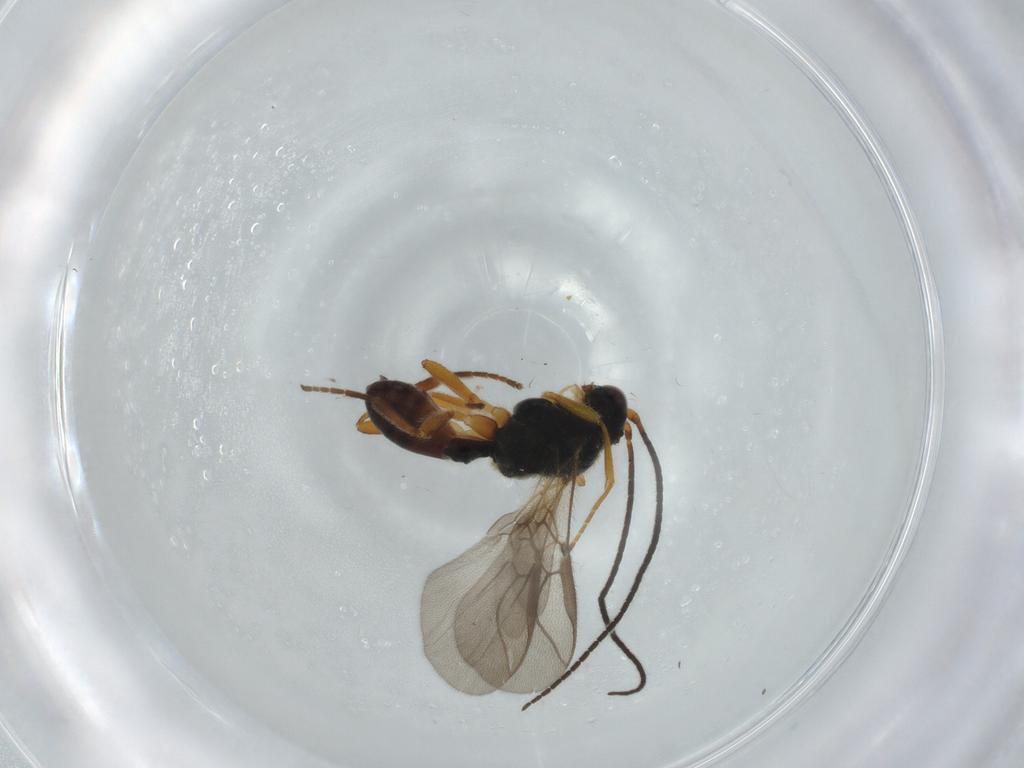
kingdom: Animalia
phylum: Arthropoda
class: Insecta
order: Hymenoptera
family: Braconidae
